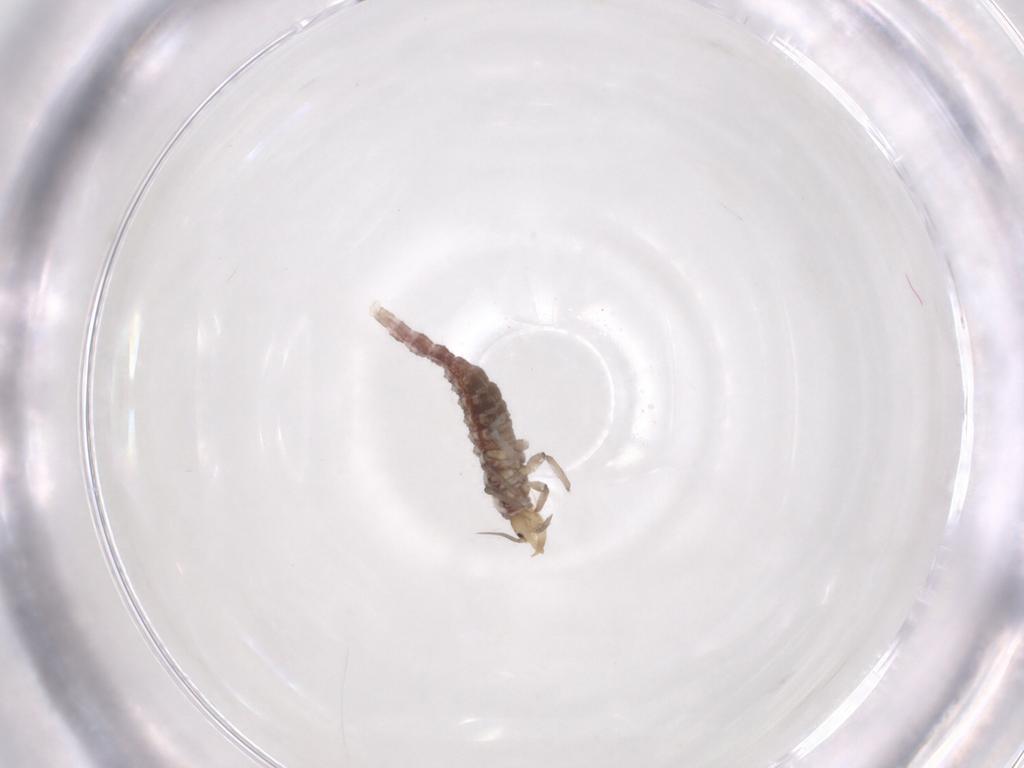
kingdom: Animalia
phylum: Arthropoda
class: Insecta
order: Neuroptera
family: Hemerobiidae
